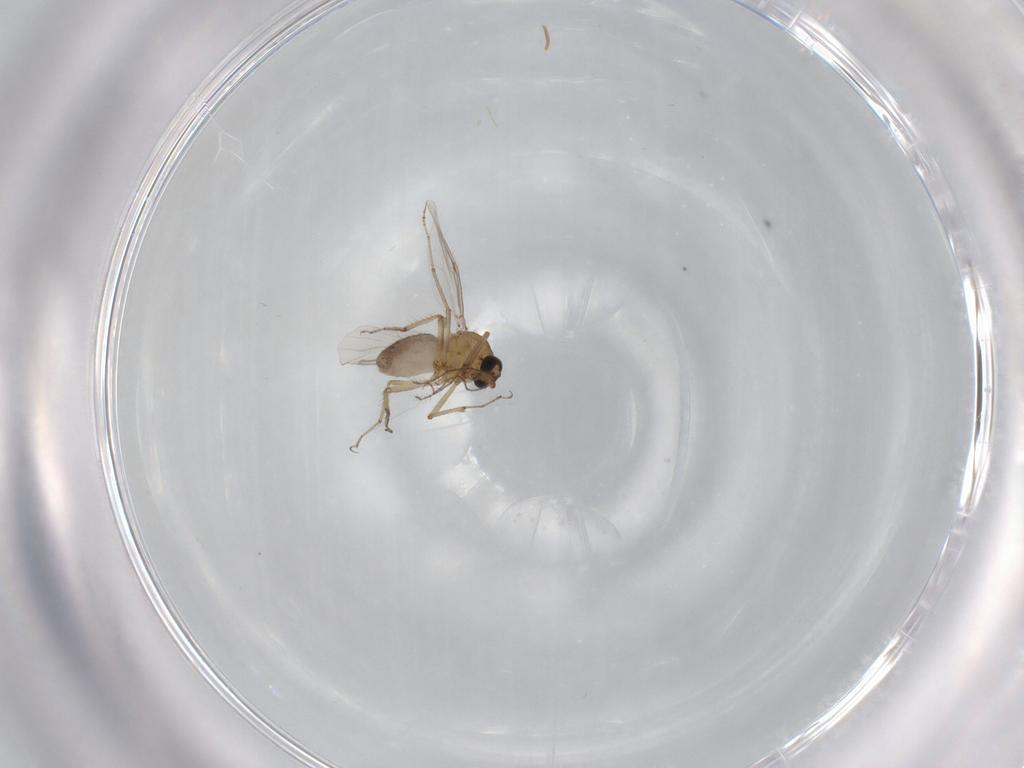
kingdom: Animalia
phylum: Arthropoda
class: Insecta
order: Diptera
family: Ceratopogonidae
